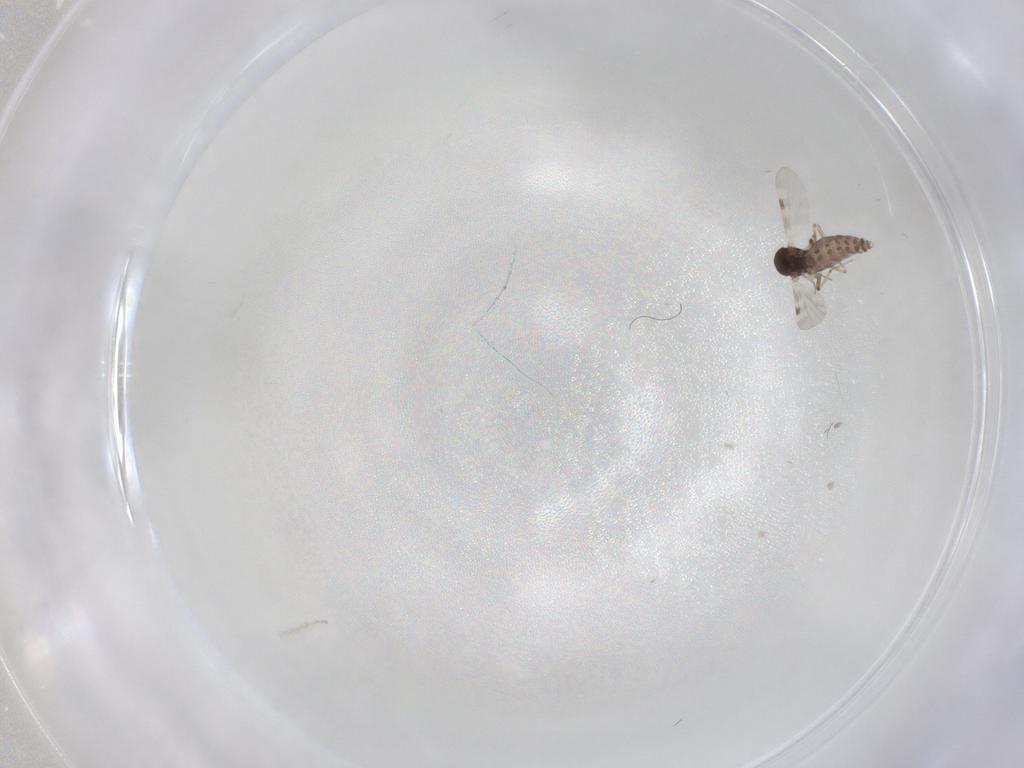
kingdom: Animalia
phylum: Arthropoda
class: Insecta
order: Diptera
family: Cecidomyiidae
